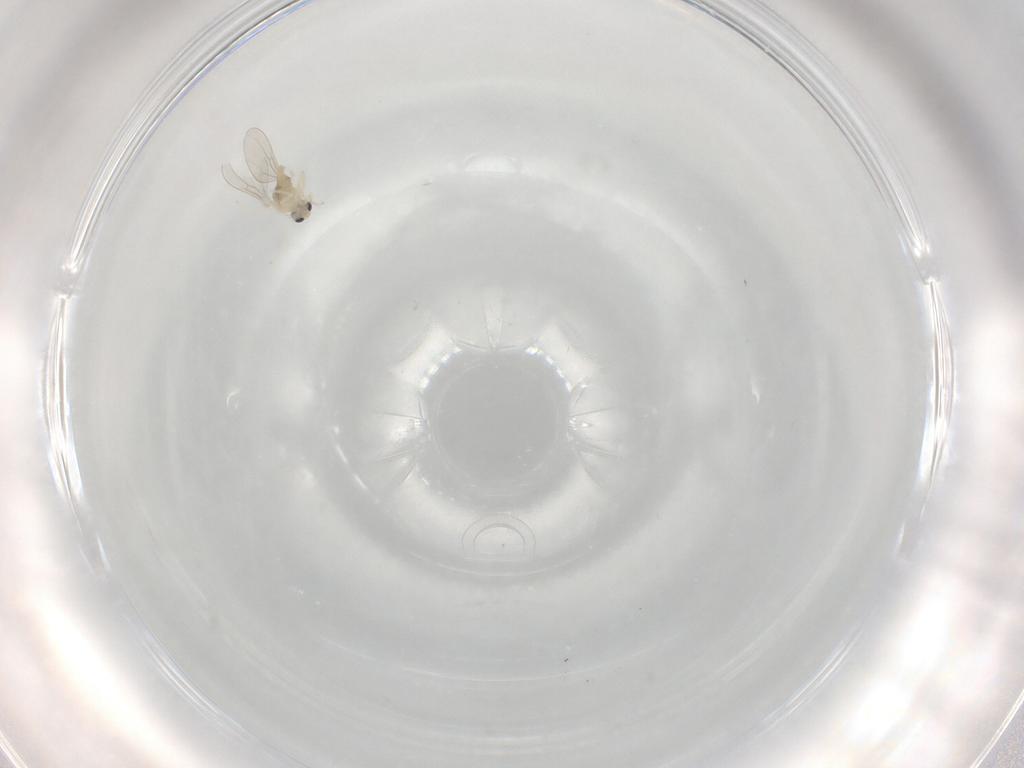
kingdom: Animalia
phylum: Arthropoda
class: Insecta
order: Diptera
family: Cecidomyiidae
